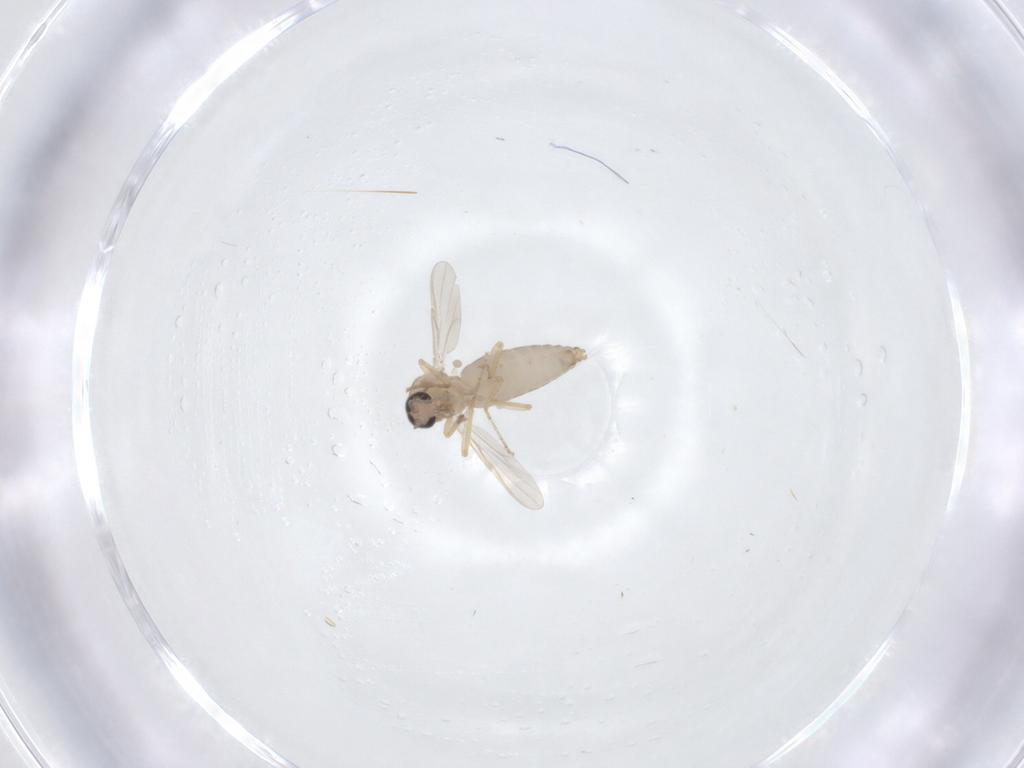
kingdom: Animalia
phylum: Arthropoda
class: Insecta
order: Diptera
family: Ceratopogonidae
